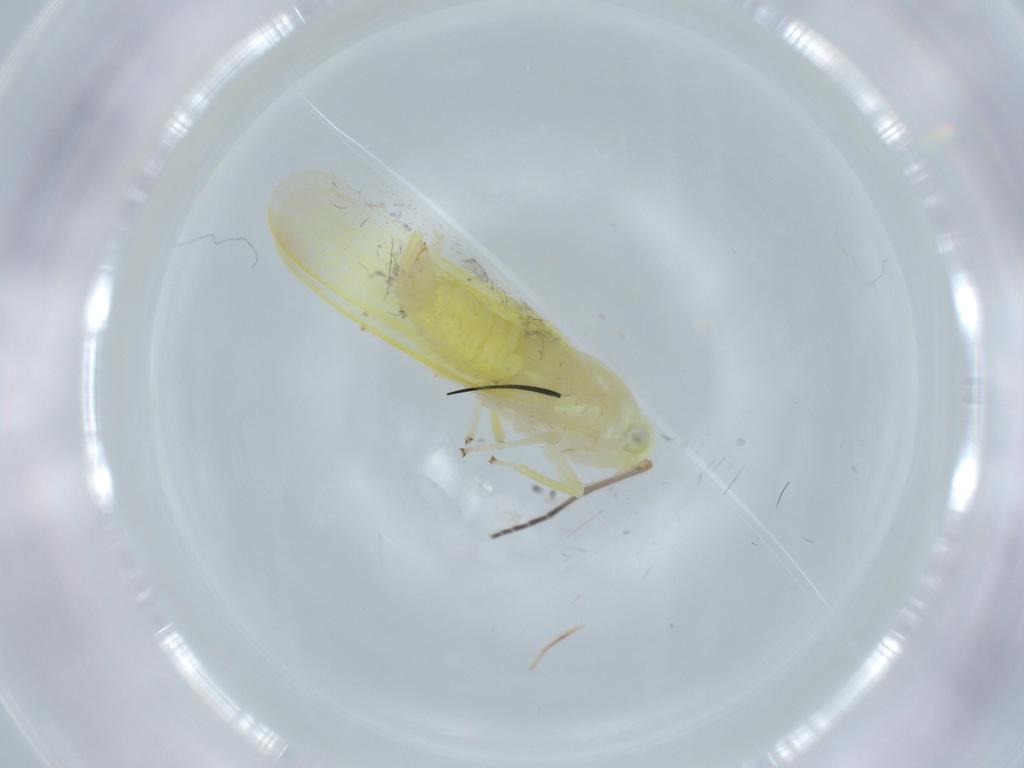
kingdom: Animalia
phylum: Arthropoda
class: Insecta
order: Hemiptera
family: Cicadellidae
